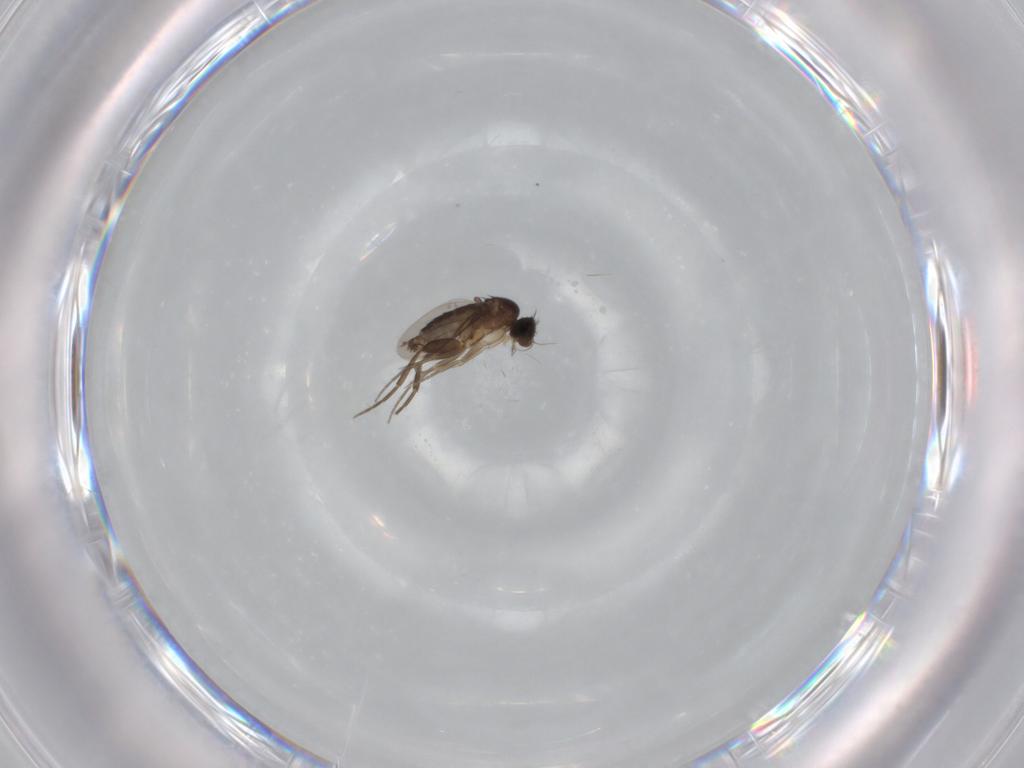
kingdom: Animalia
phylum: Arthropoda
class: Insecta
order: Diptera
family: Phoridae
